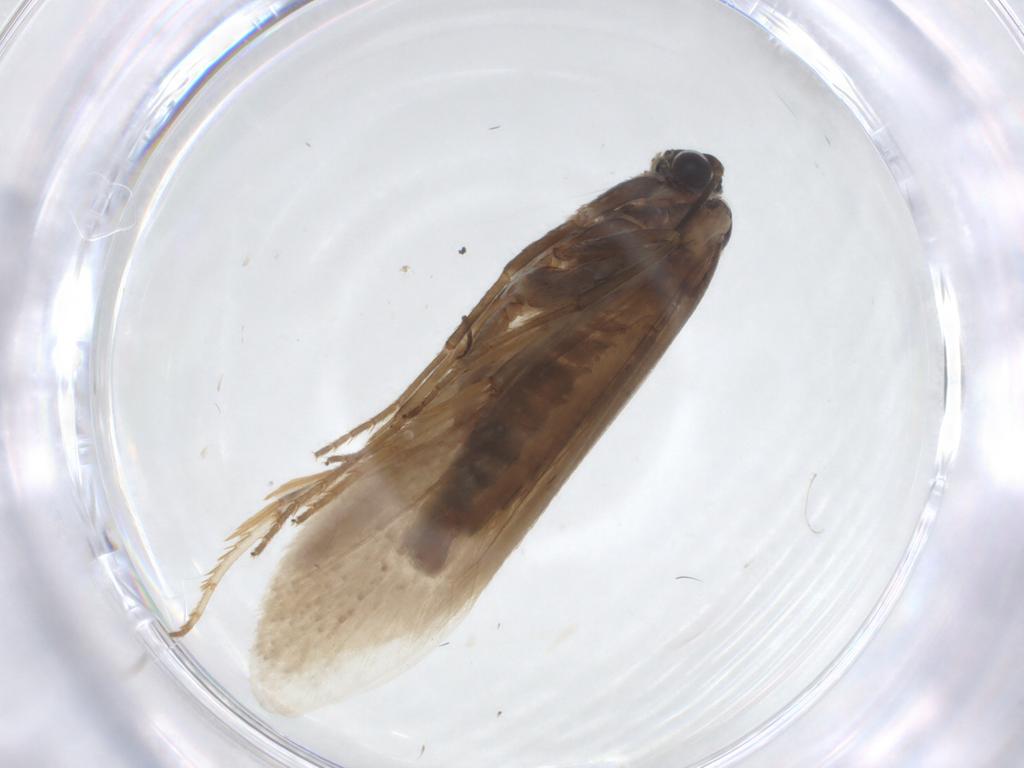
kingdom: Animalia
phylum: Arthropoda
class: Insecta
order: Lepidoptera
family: Tridentaformidae
